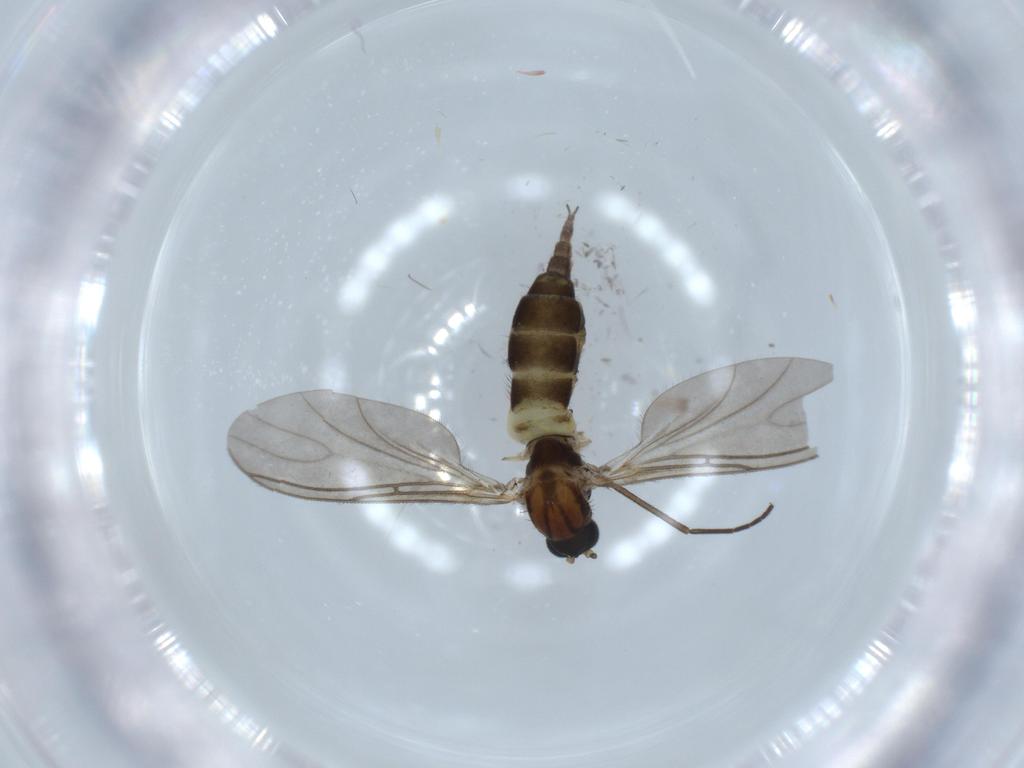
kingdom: Animalia
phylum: Arthropoda
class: Insecta
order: Diptera
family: Sciaridae
